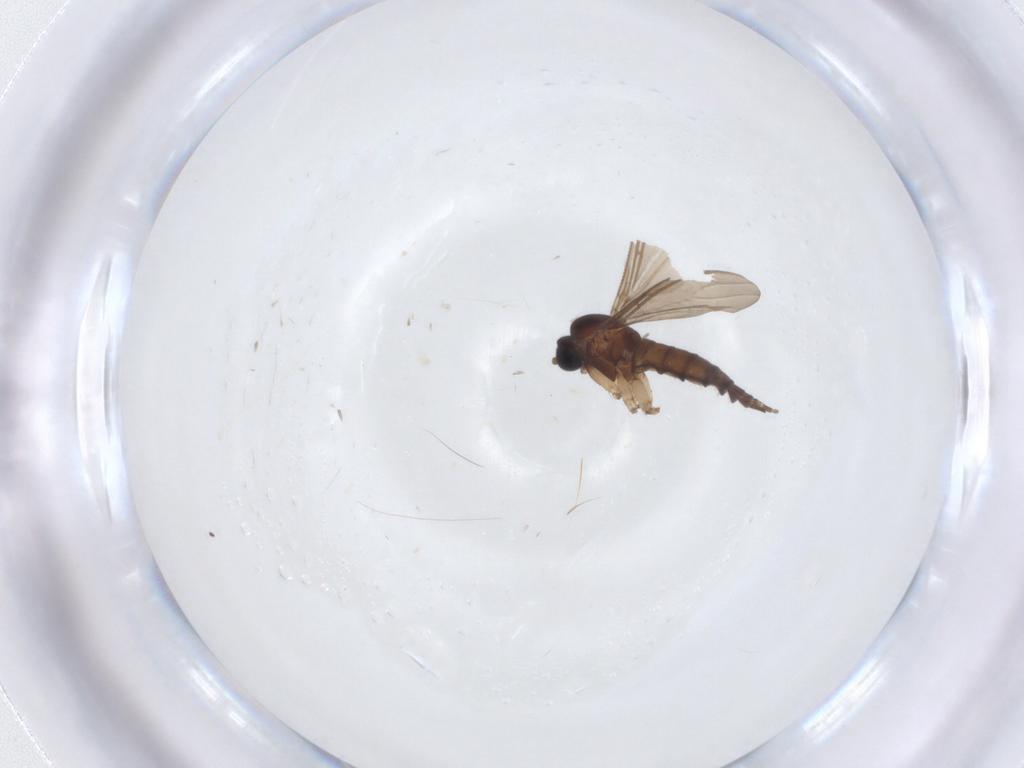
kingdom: Animalia
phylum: Arthropoda
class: Insecta
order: Diptera
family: Sciaridae
